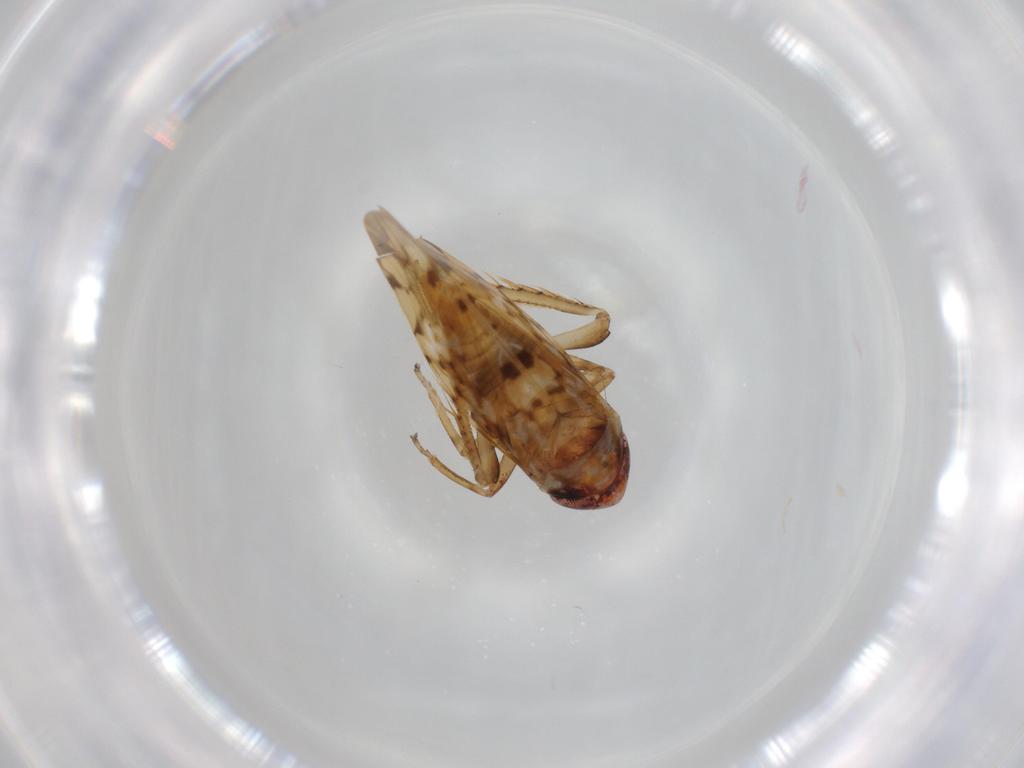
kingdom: Animalia
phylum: Arthropoda
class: Insecta
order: Hemiptera
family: Cicadellidae
